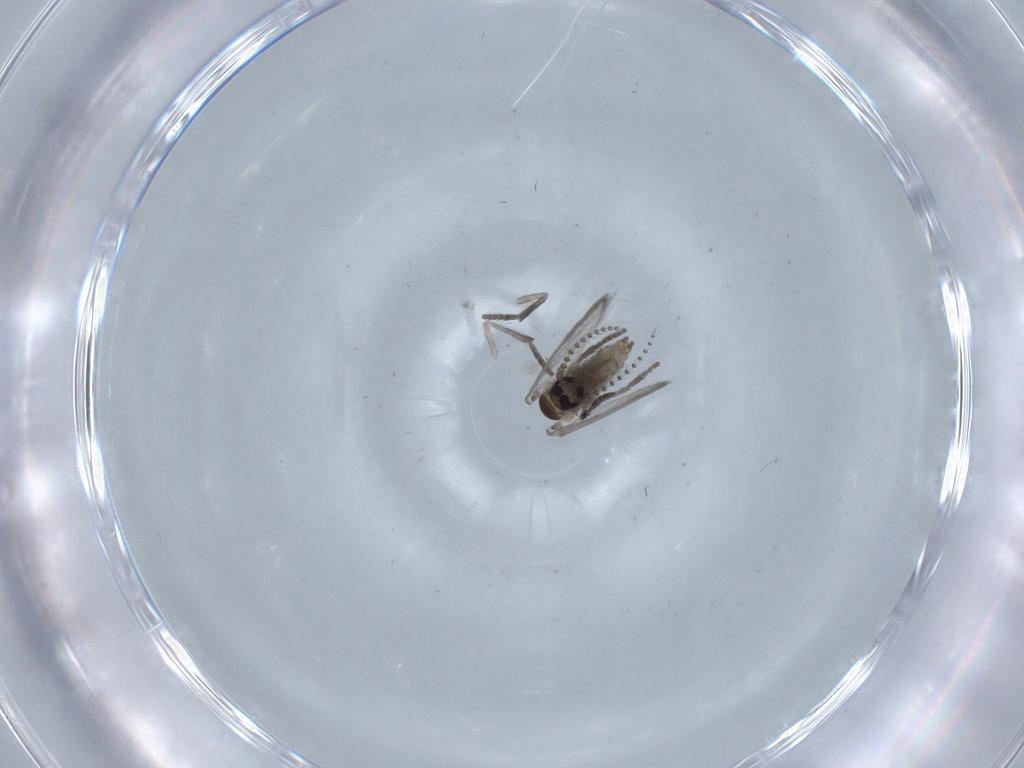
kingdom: Animalia
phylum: Arthropoda
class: Insecta
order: Diptera
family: Psychodidae
